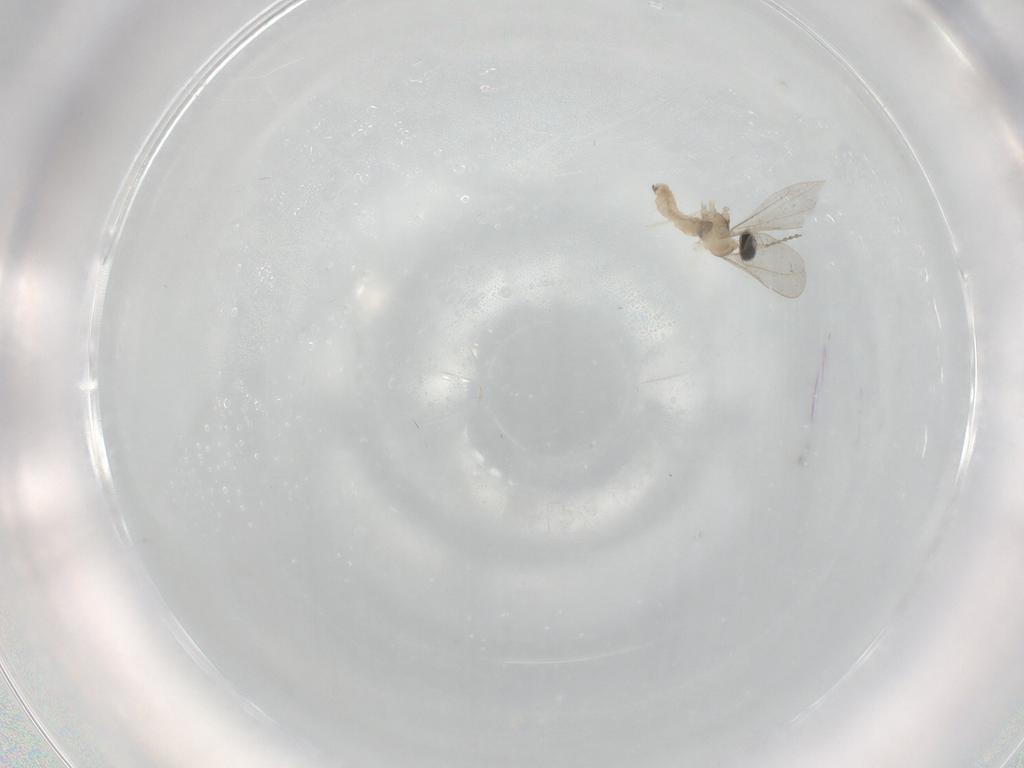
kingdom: Animalia
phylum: Arthropoda
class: Insecta
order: Diptera
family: Cecidomyiidae
